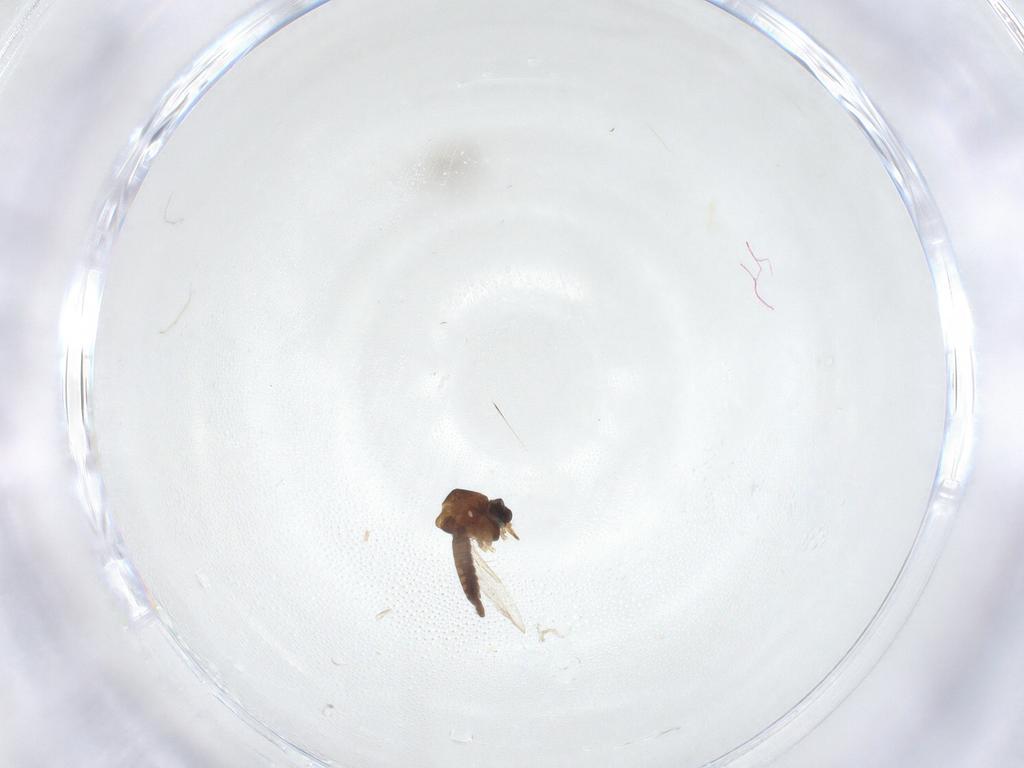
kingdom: Animalia
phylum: Arthropoda
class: Insecta
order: Diptera
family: Ceratopogonidae
